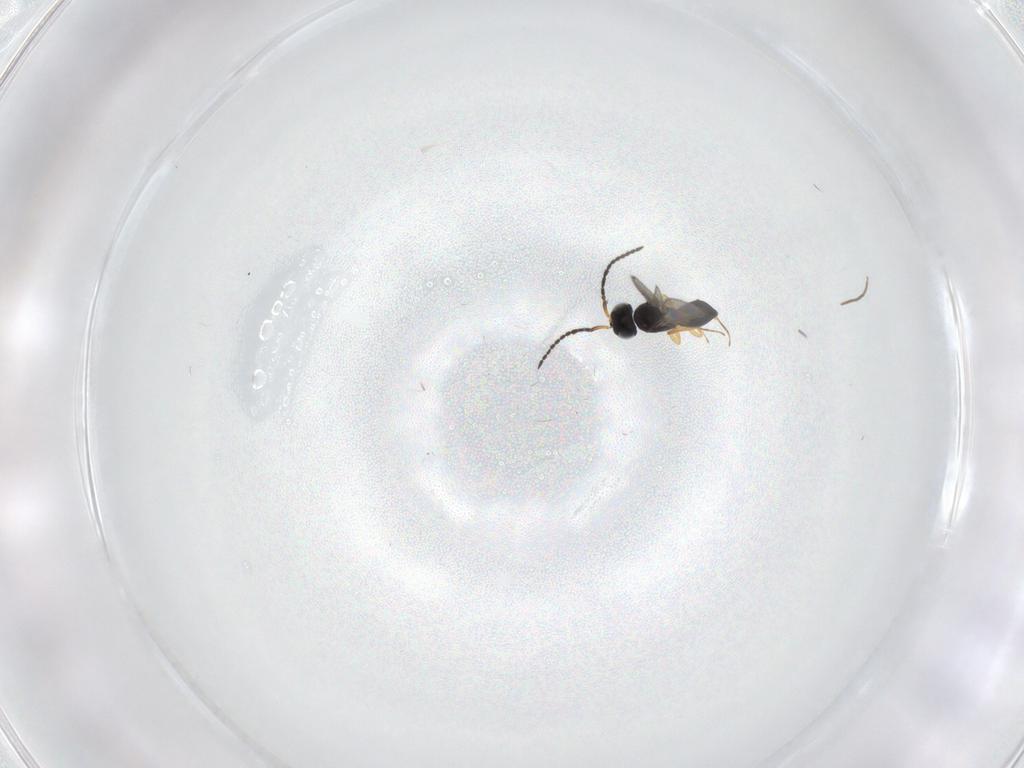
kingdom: Animalia
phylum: Arthropoda
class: Insecta
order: Hymenoptera
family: Scelionidae
